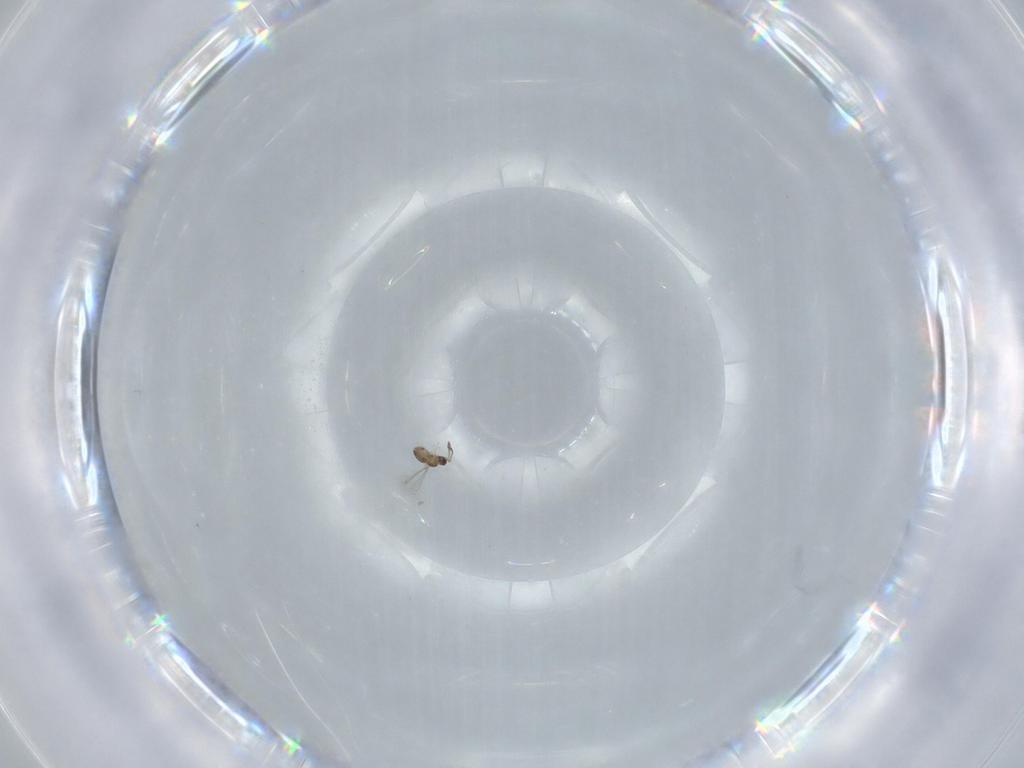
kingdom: Animalia
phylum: Arthropoda
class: Insecta
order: Hymenoptera
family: Mymaridae
